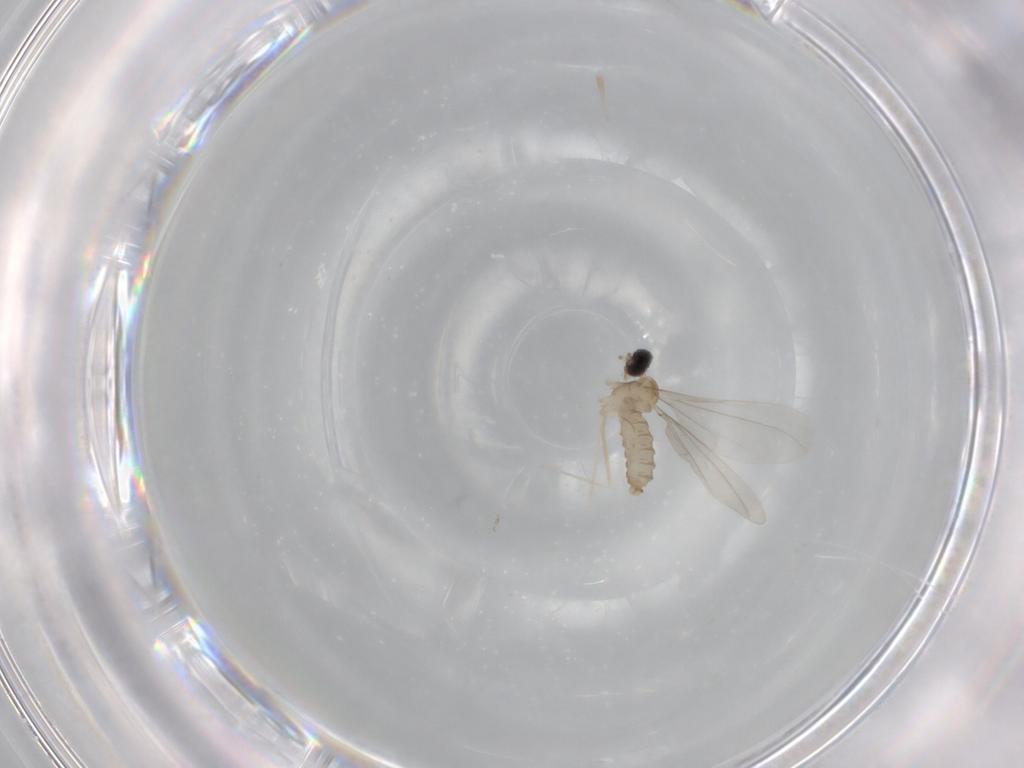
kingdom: Animalia
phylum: Arthropoda
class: Insecta
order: Diptera
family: Cecidomyiidae
